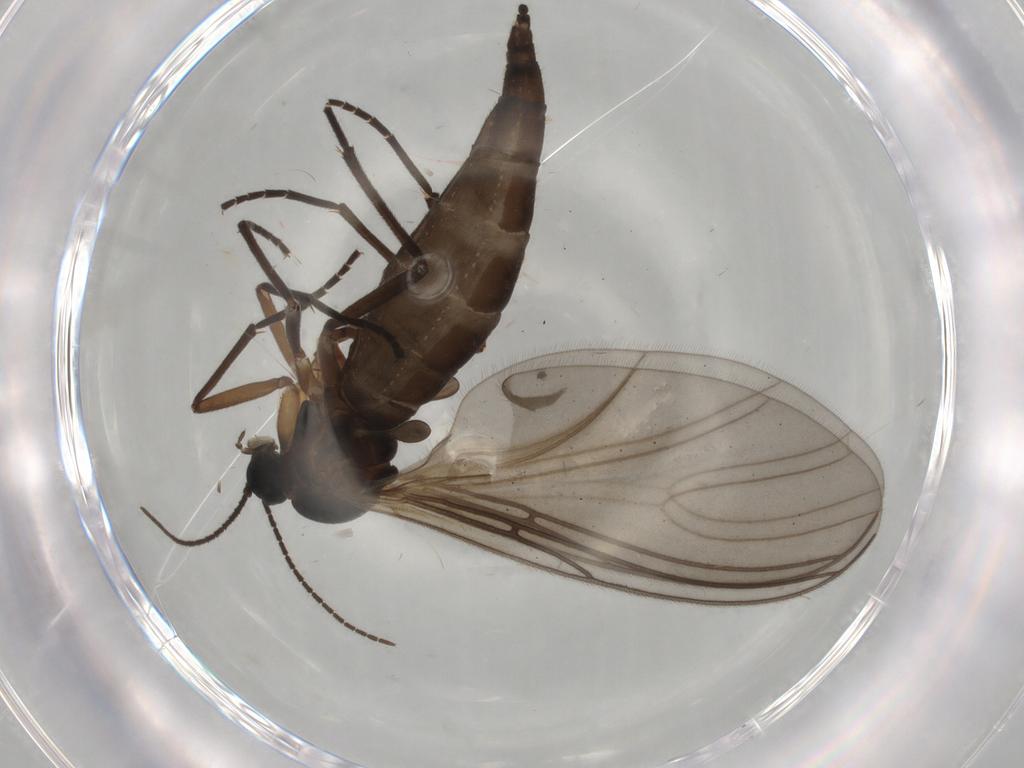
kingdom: Animalia
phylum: Arthropoda
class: Insecta
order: Diptera
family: Sciaridae
